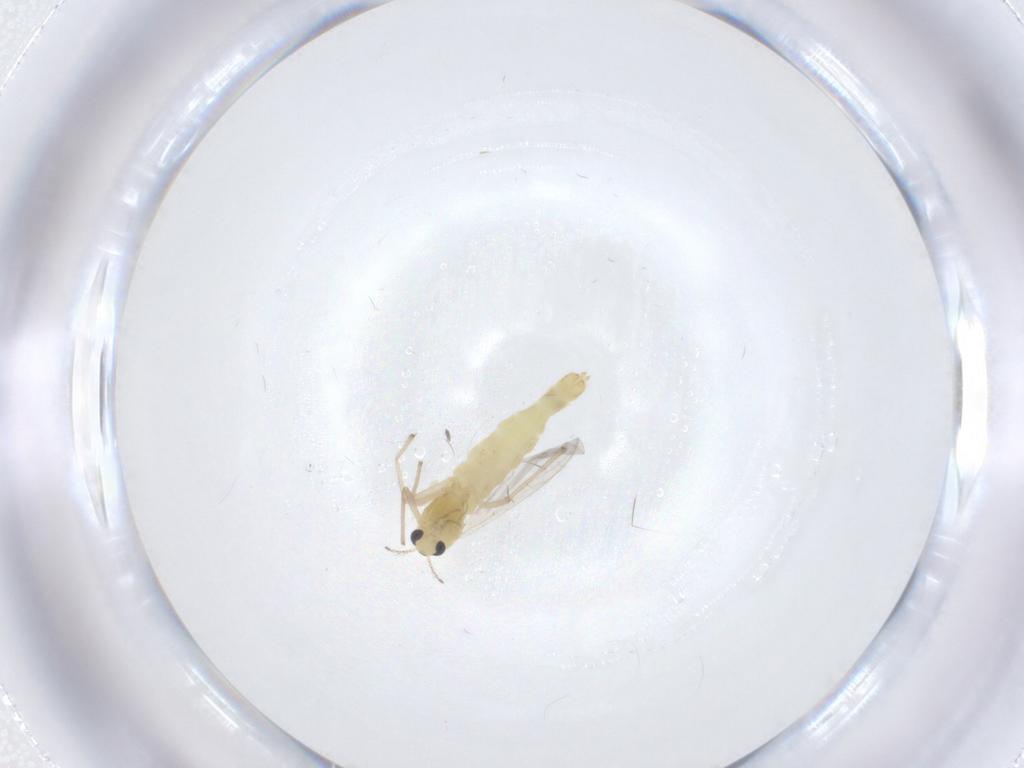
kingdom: Animalia
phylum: Arthropoda
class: Insecta
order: Diptera
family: Chironomidae
